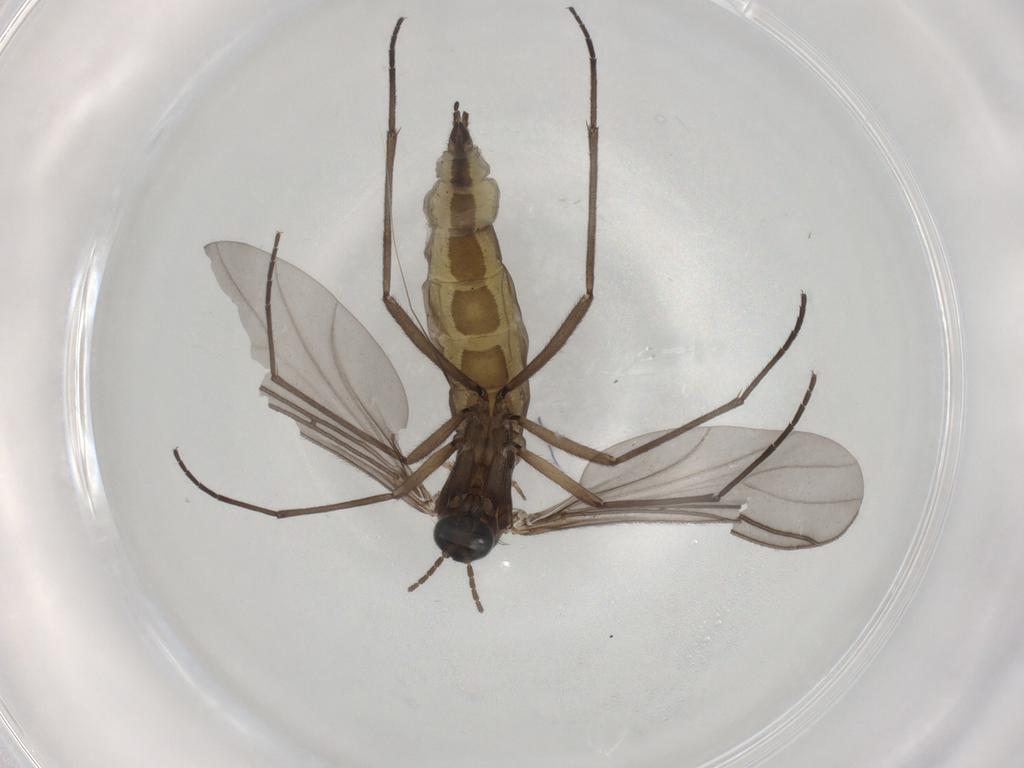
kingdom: Animalia
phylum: Arthropoda
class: Insecta
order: Diptera
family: Sciaridae
